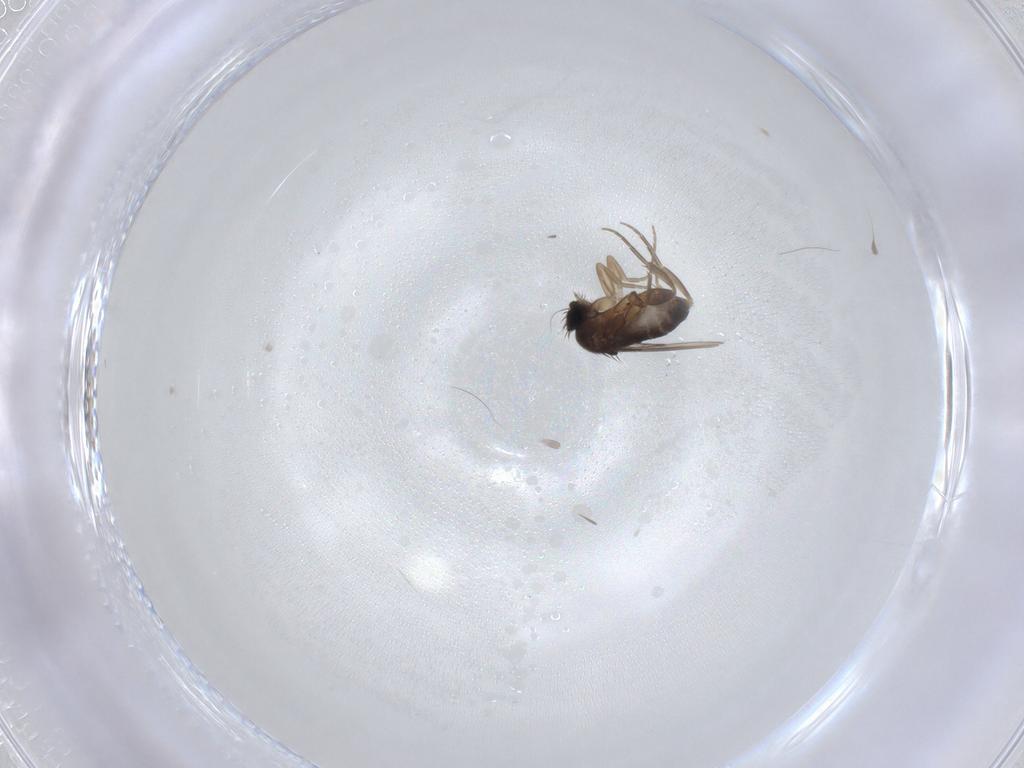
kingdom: Animalia
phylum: Arthropoda
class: Insecta
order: Diptera
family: Phoridae
